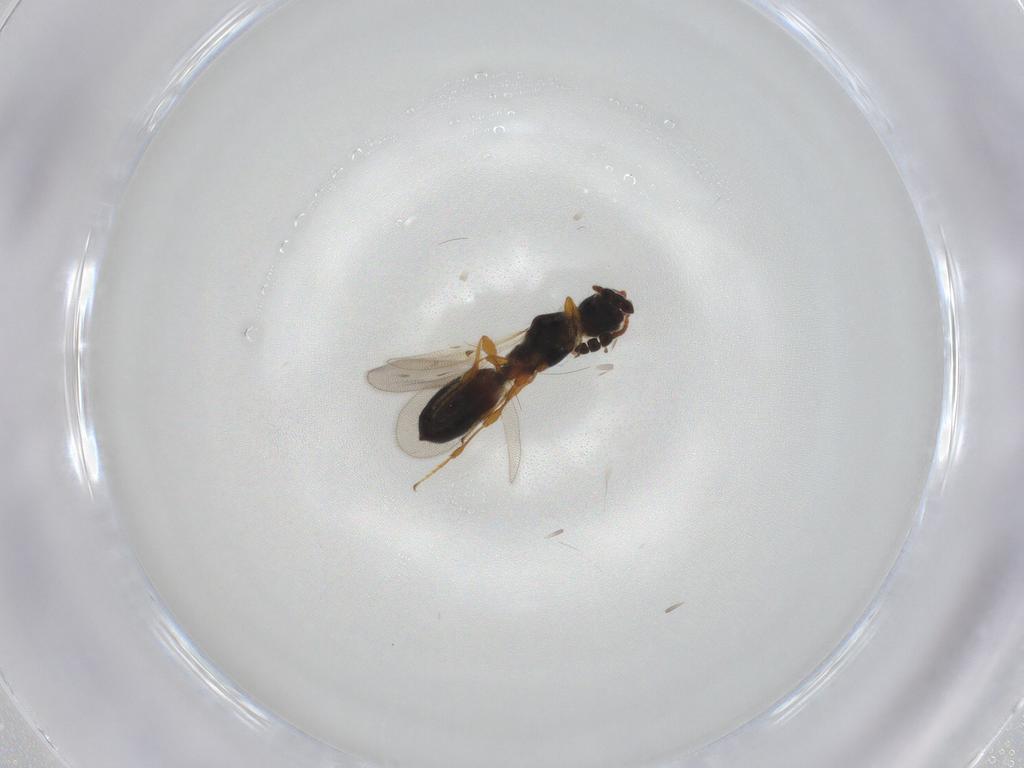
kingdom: Animalia
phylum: Arthropoda
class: Insecta
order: Hymenoptera
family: Diapriidae
